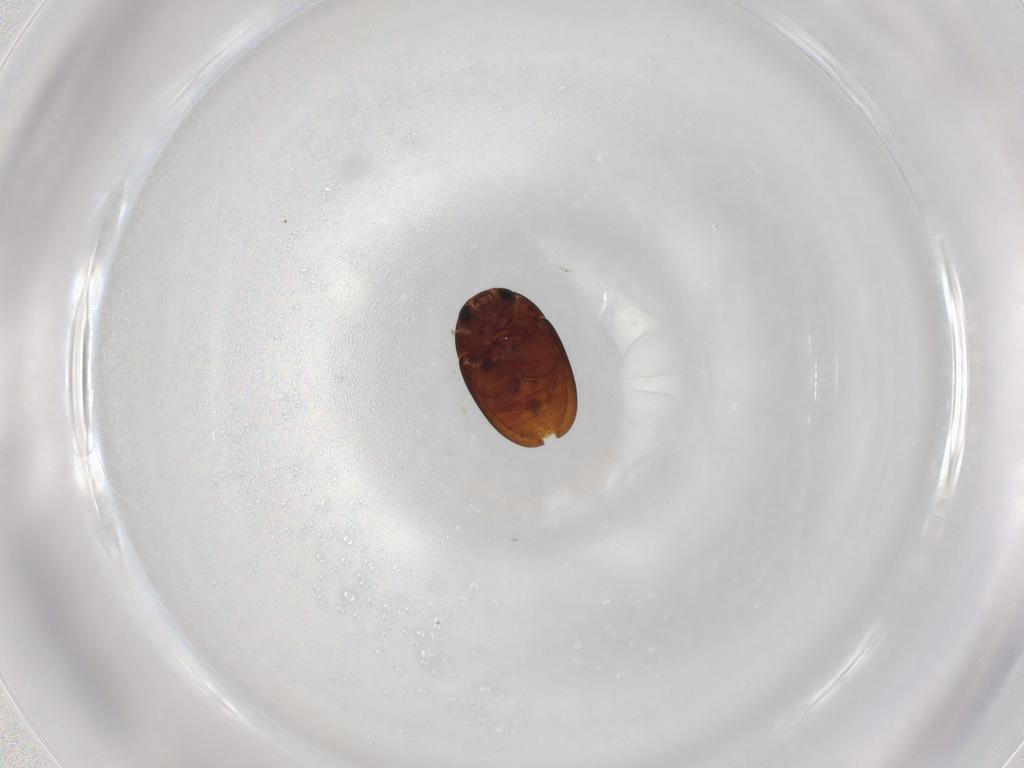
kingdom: Animalia
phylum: Arthropoda
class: Insecta
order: Coleoptera
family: Phalacridae
